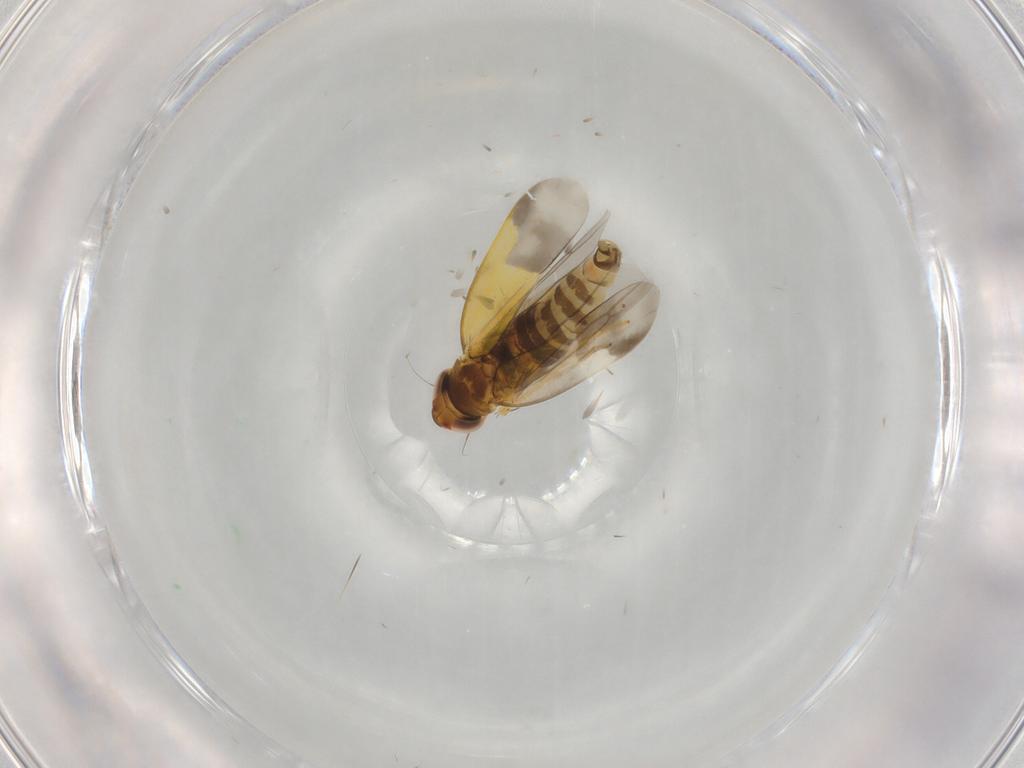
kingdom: Animalia
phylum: Arthropoda
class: Insecta
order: Hemiptera
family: Cicadellidae
